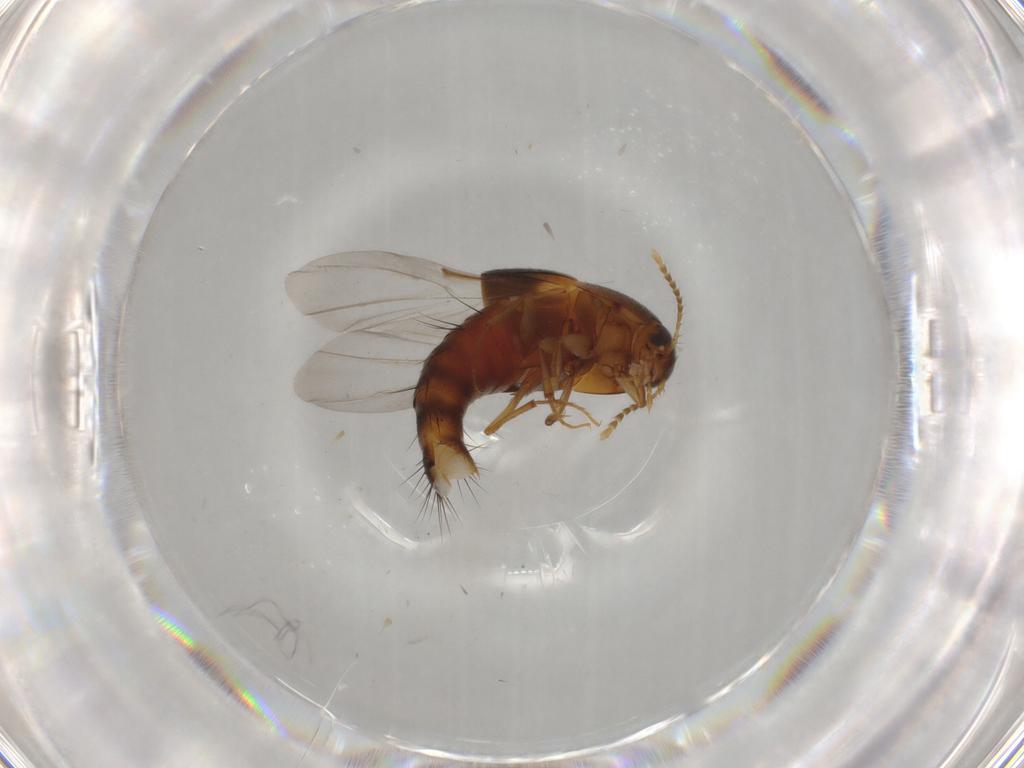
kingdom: Animalia
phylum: Arthropoda
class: Insecta
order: Coleoptera
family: Staphylinidae
